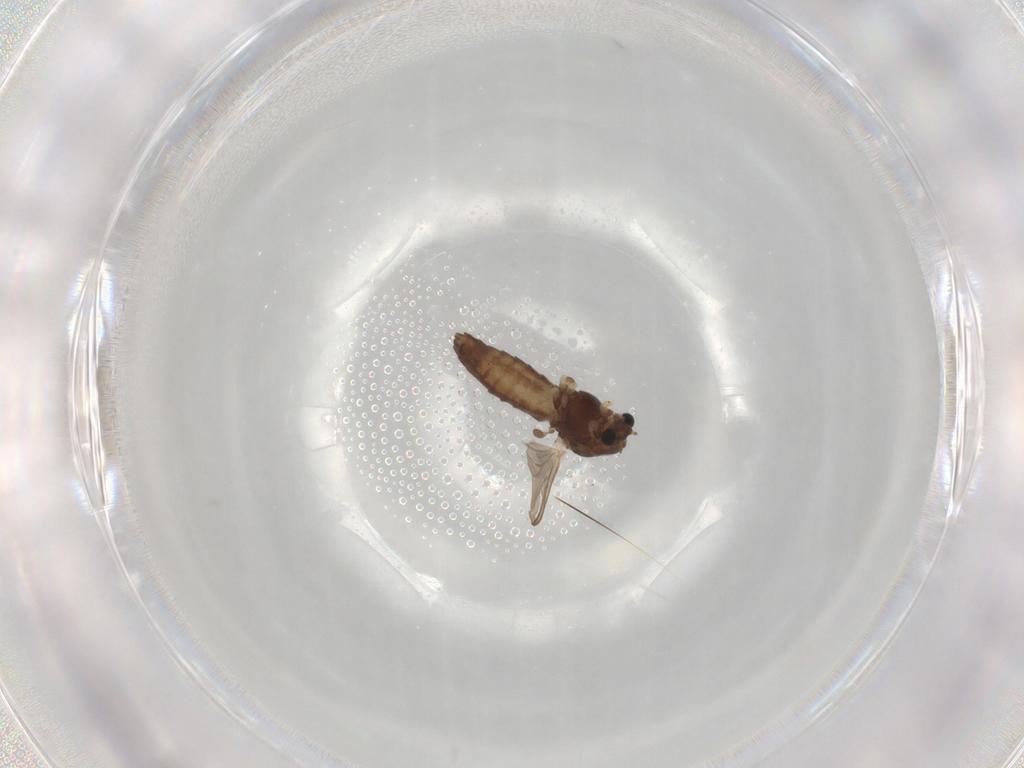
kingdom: Animalia
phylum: Arthropoda
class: Insecta
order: Diptera
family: Chironomidae
